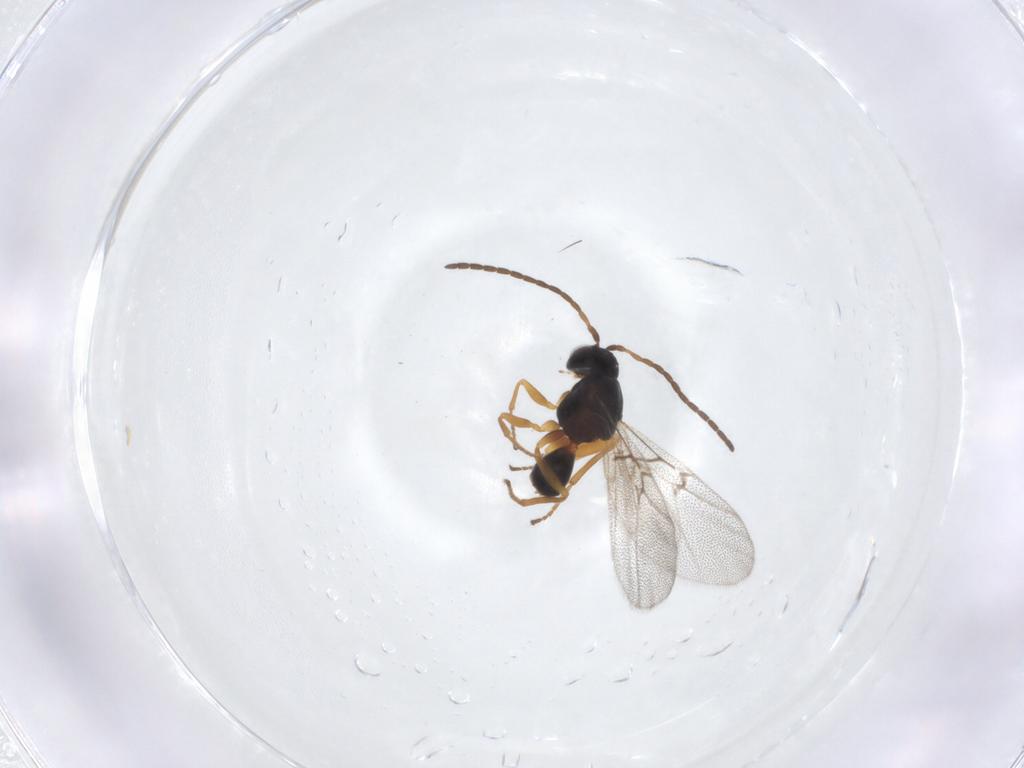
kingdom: Animalia
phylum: Arthropoda
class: Insecta
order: Hymenoptera
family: Cynipidae
